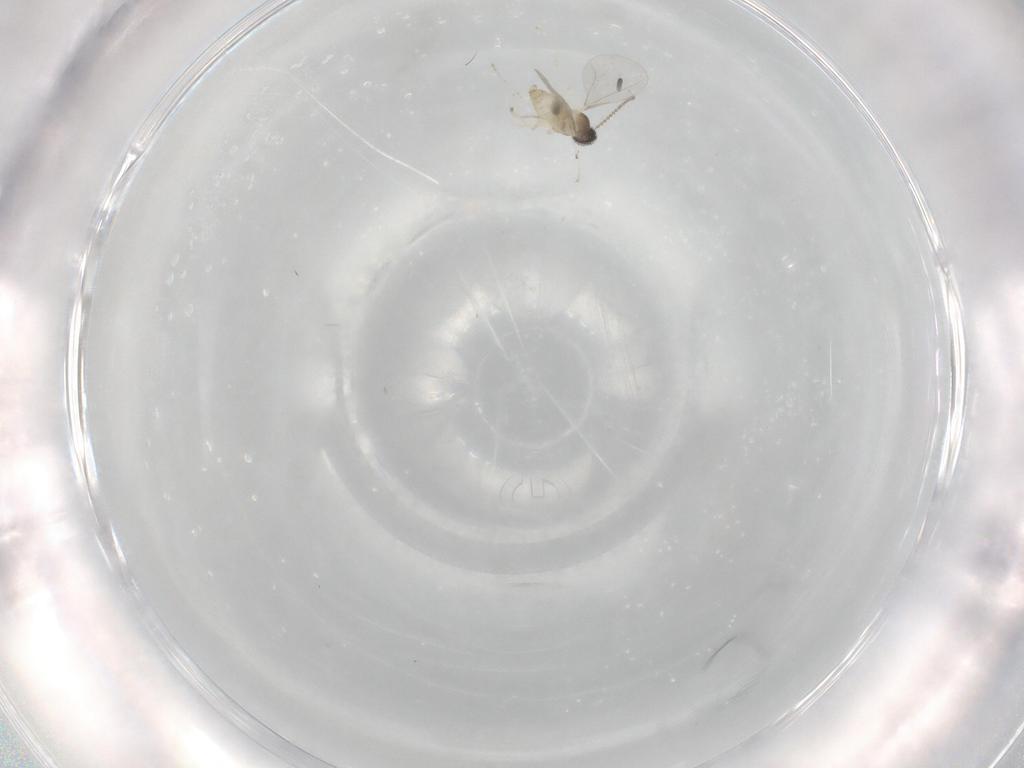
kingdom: Animalia
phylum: Arthropoda
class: Insecta
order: Diptera
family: Cecidomyiidae
